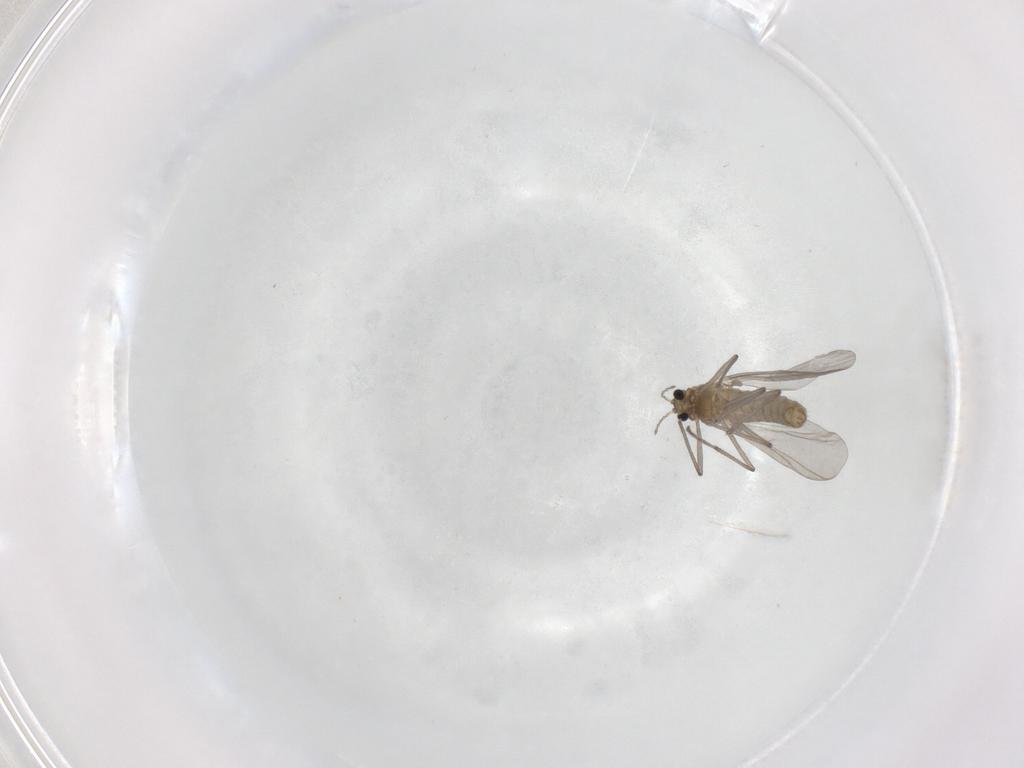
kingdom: Animalia
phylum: Arthropoda
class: Insecta
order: Diptera
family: Chironomidae
